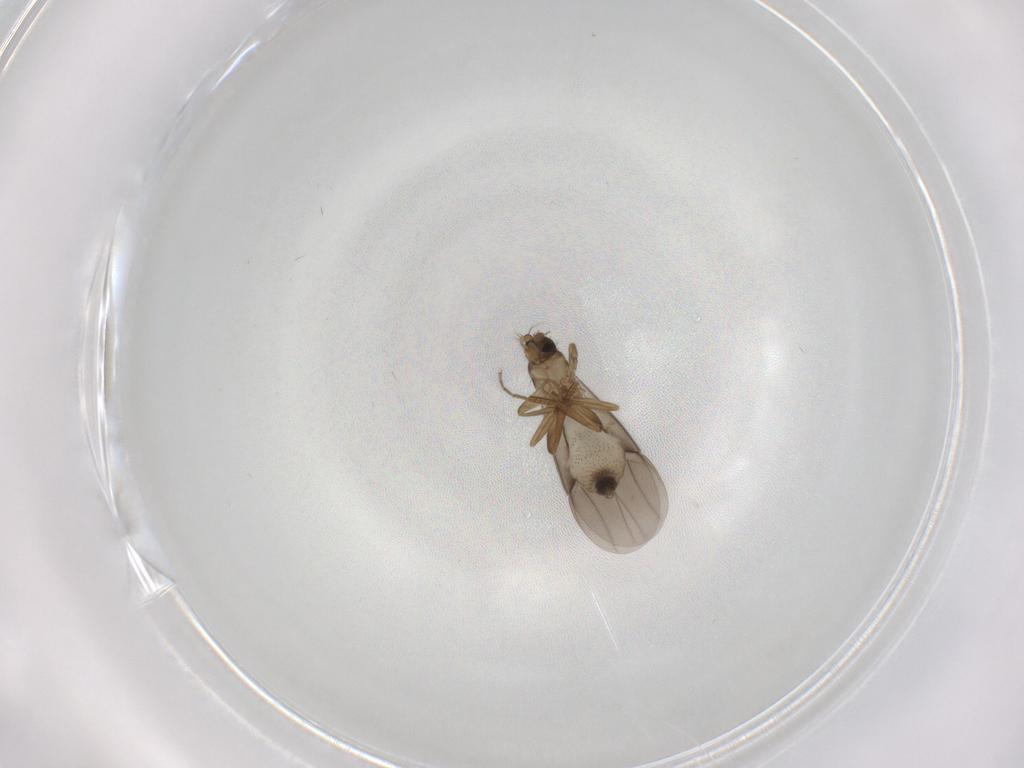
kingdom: Animalia
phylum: Arthropoda
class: Insecta
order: Diptera
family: Phoridae
